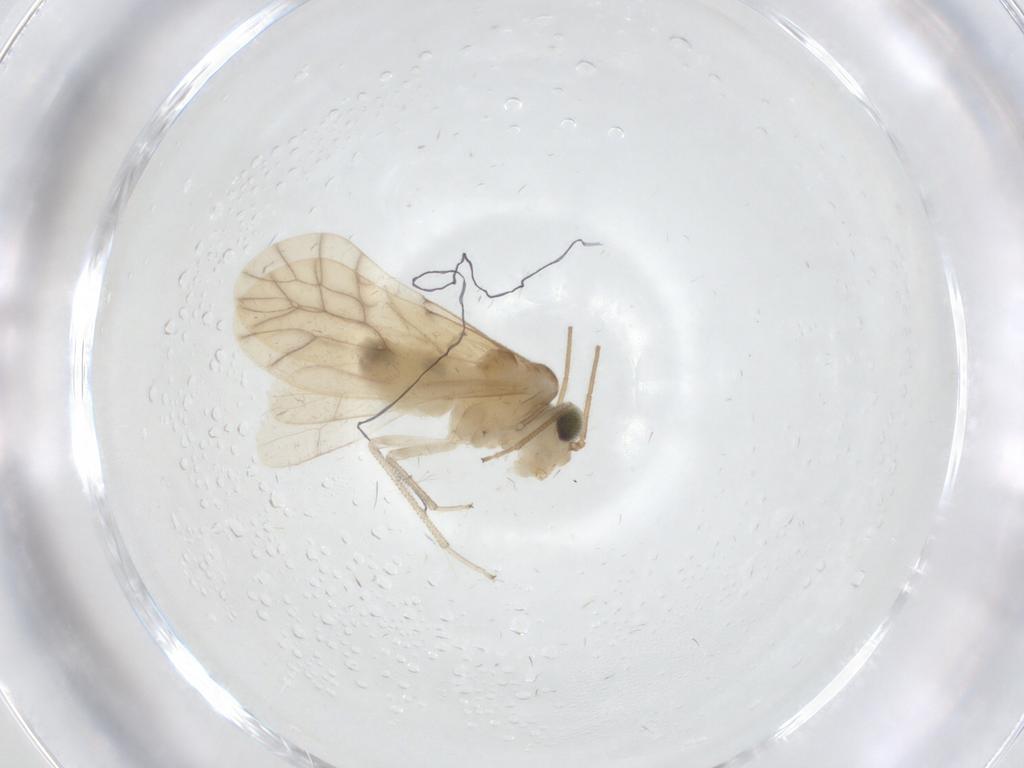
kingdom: Animalia
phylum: Arthropoda
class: Insecta
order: Psocodea
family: Caeciliusidae
